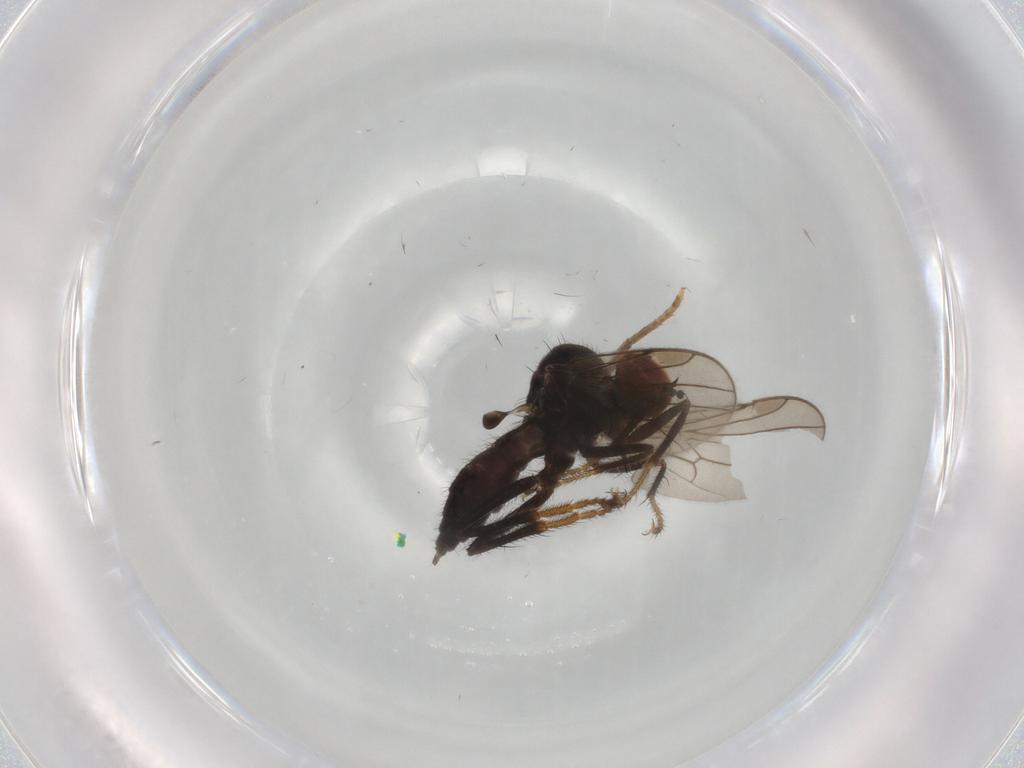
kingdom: Animalia
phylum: Arthropoda
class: Insecta
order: Diptera
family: Hybotidae
